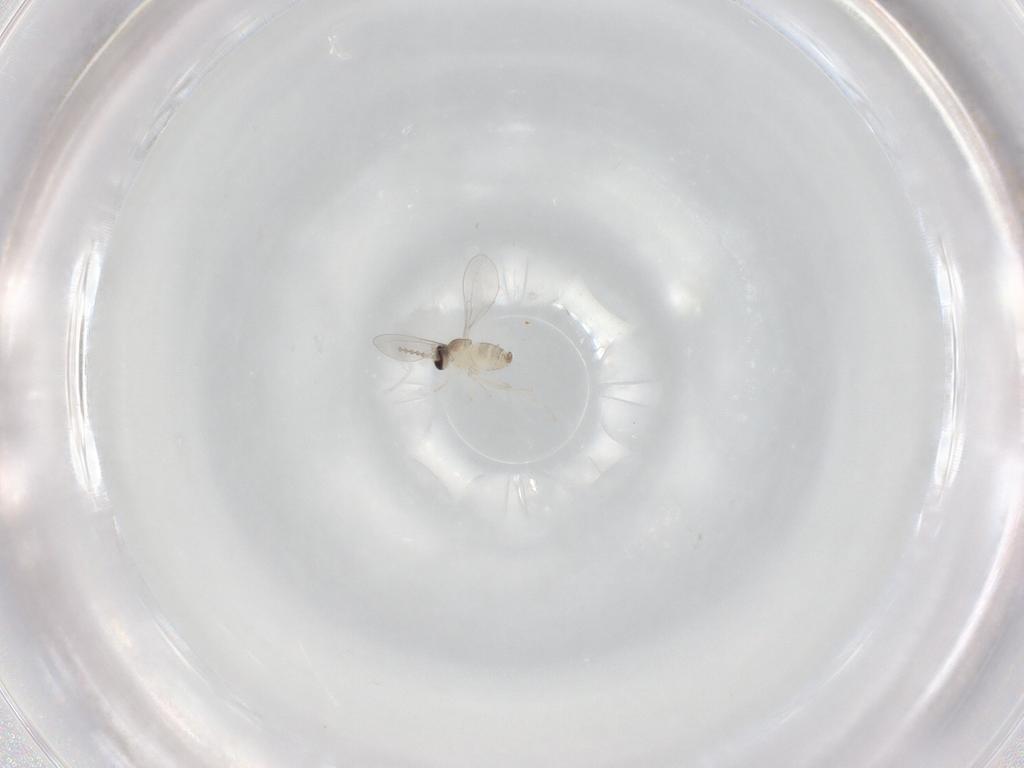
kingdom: Animalia
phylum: Arthropoda
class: Insecta
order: Diptera
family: Cecidomyiidae
